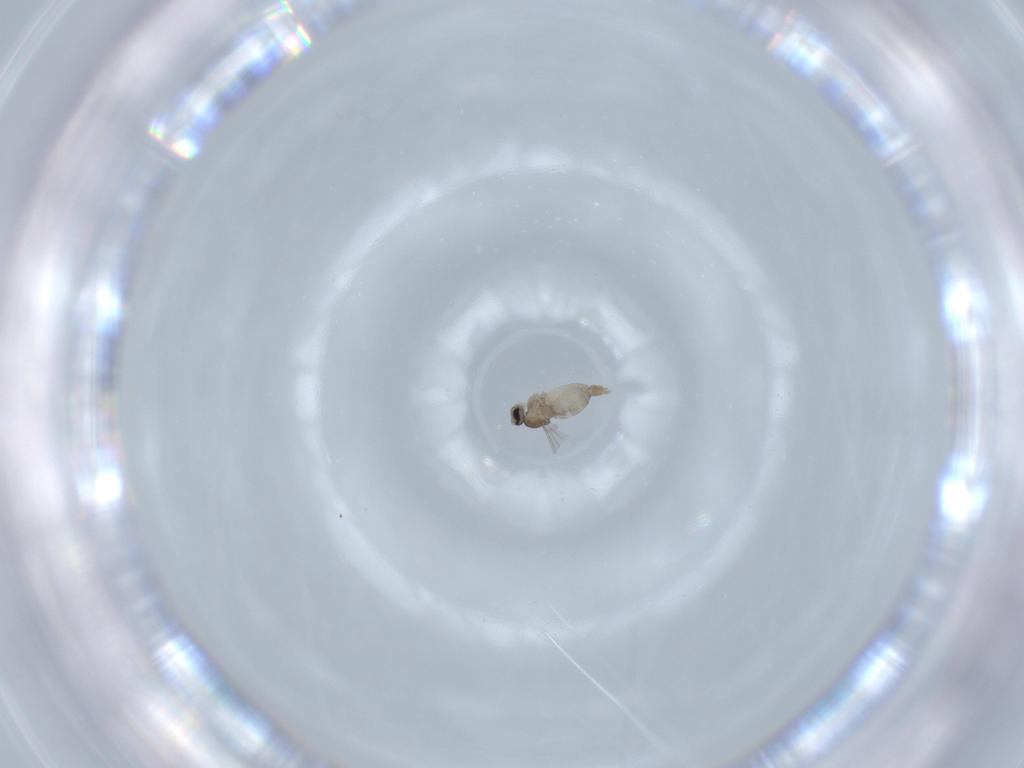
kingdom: Animalia
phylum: Arthropoda
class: Insecta
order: Diptera
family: Cecidomyiidae
